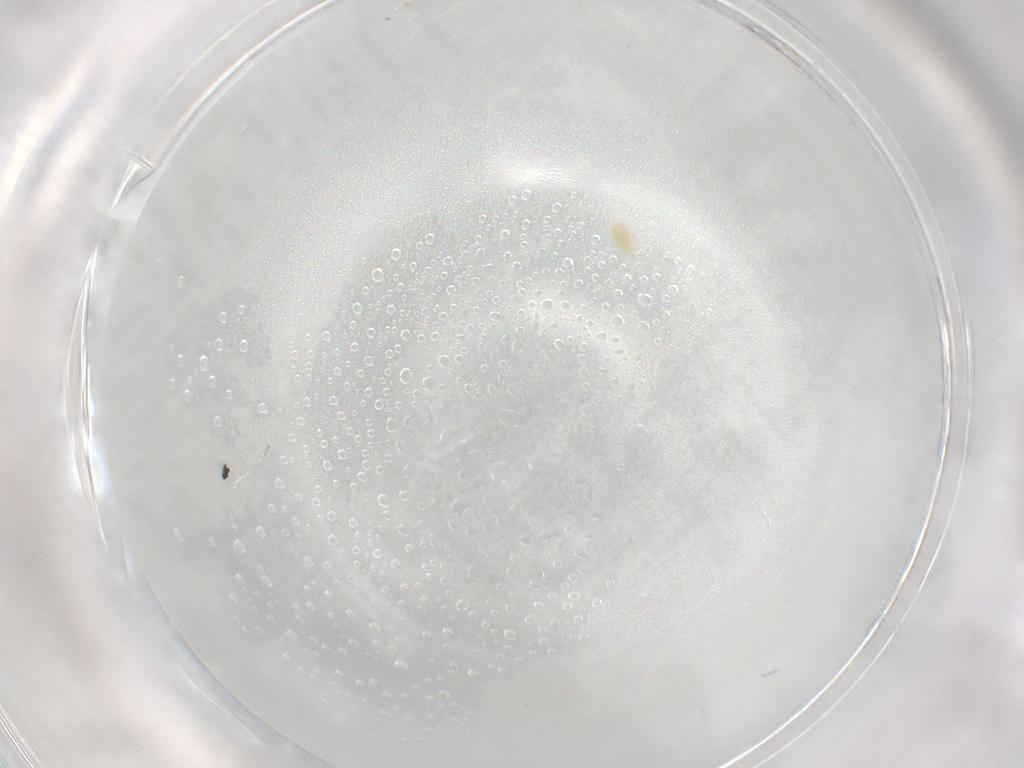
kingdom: Animalia
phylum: Arthropoda
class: Arachnida
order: Trombidiformes
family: Eupodidae
